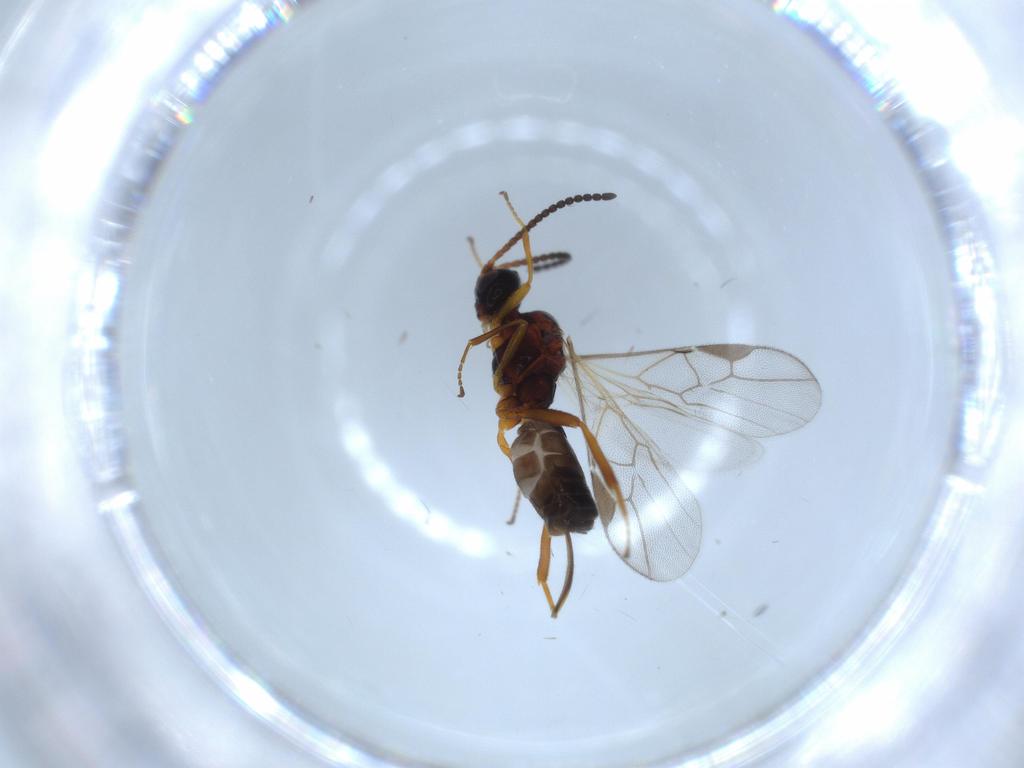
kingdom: Animalia
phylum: Arthropoda
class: Insecta
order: Hymenoptera
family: Braconidae
